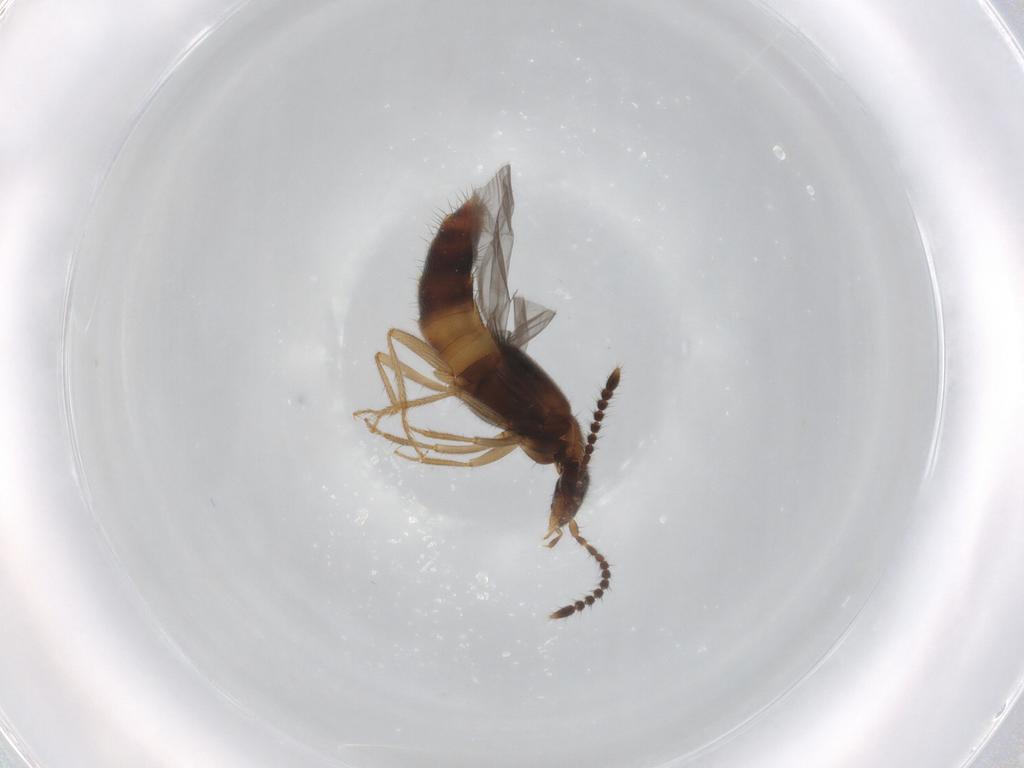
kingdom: Animalia
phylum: Arthropoda
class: Insecta
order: Coleoptera
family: Staphylinidae
